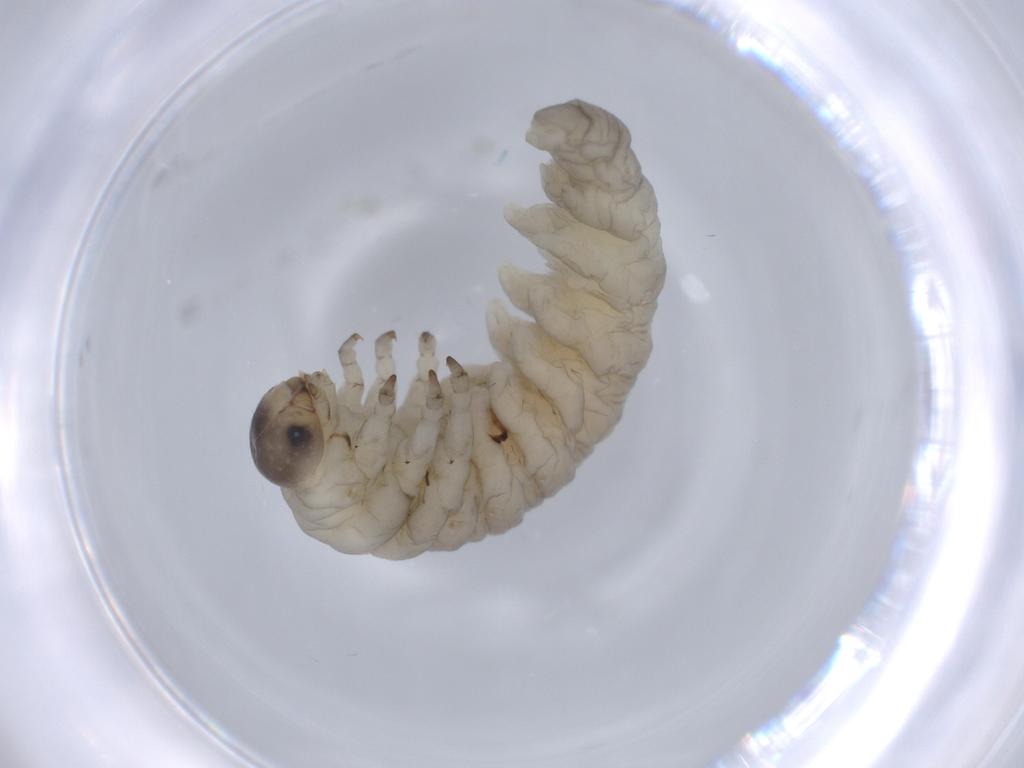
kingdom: Animalia
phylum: Arthropoda
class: Insecta
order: Hymenoptera
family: Ichneumonidae
